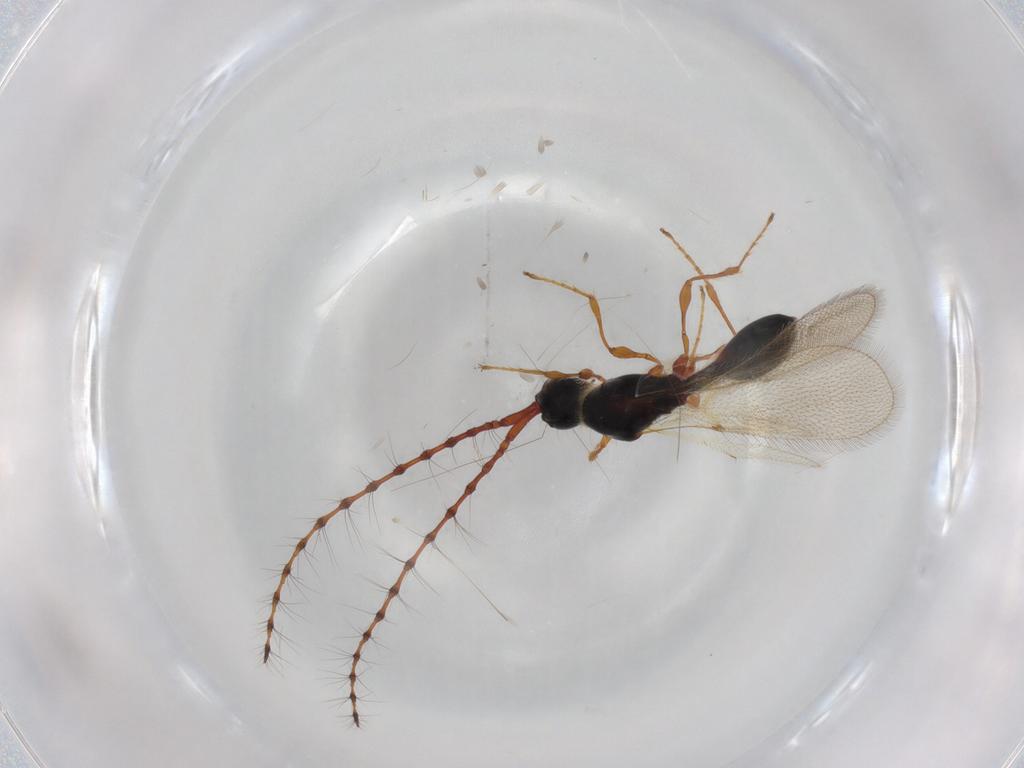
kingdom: Animalia
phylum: Arthropoda
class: Insecta
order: Hymenoptera
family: Diapriidae
